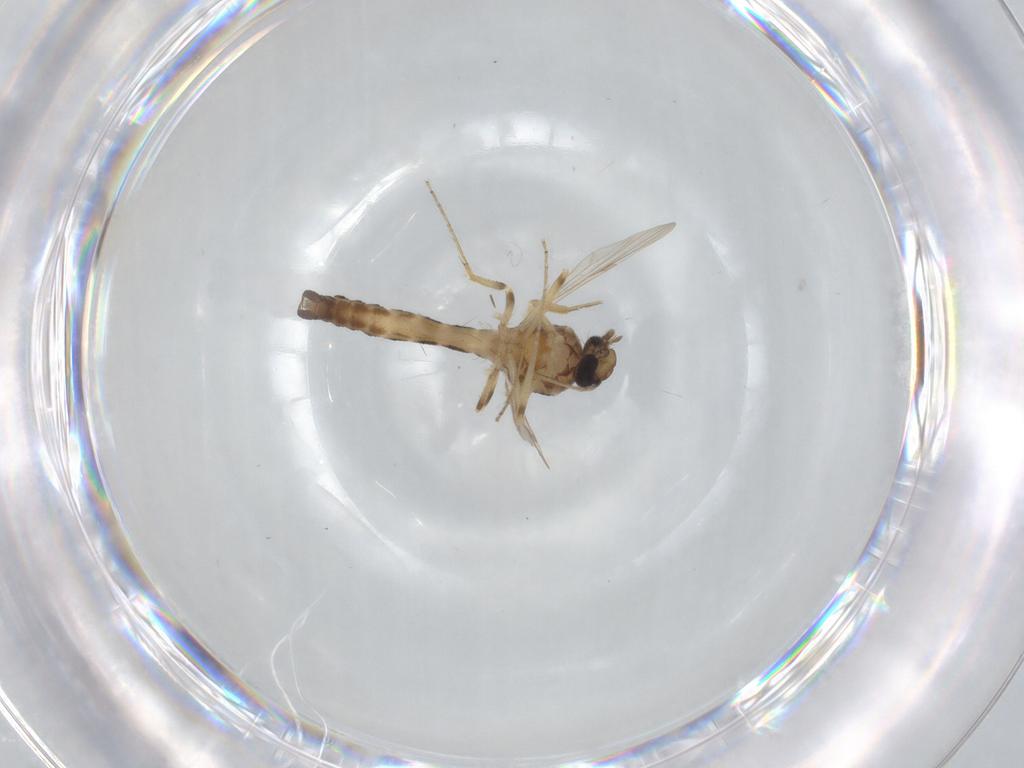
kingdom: Animalia
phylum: Arthropoda
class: Insecta
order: Diptera
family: Ceratopogonidae
